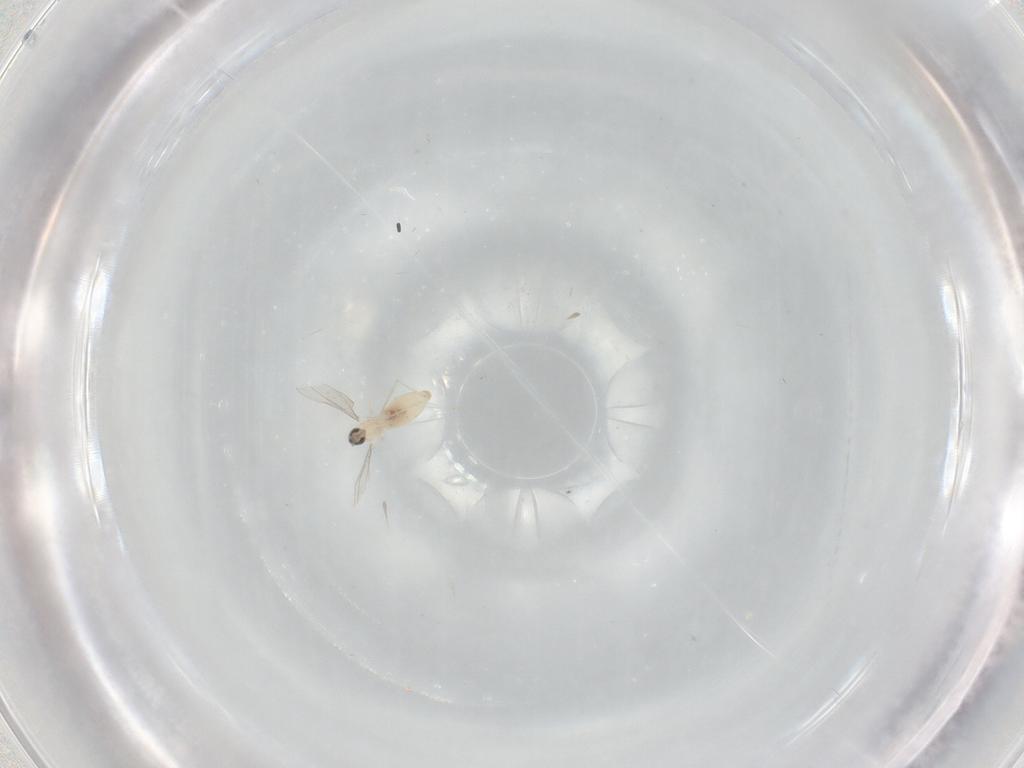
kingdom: Animalia
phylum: Arthropoda
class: Insecta
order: Diptera
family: Cecidomyiidae
